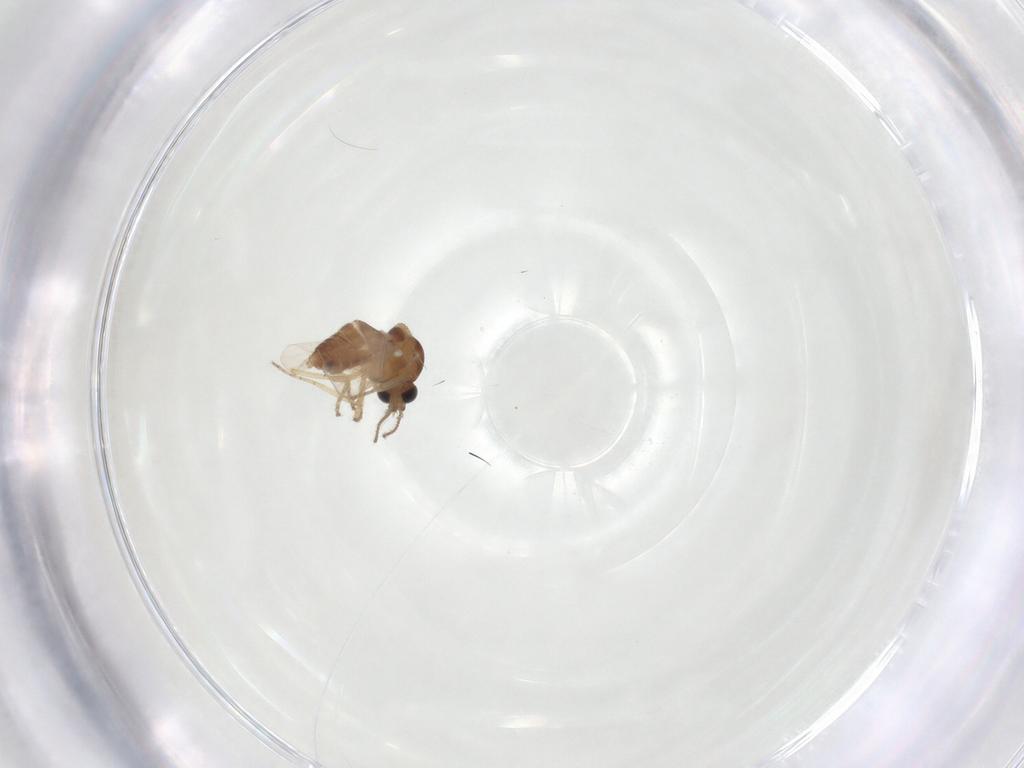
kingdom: Animalia
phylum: Arthropoda
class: Insecta
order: Diptera
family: Ceratopogonidae
